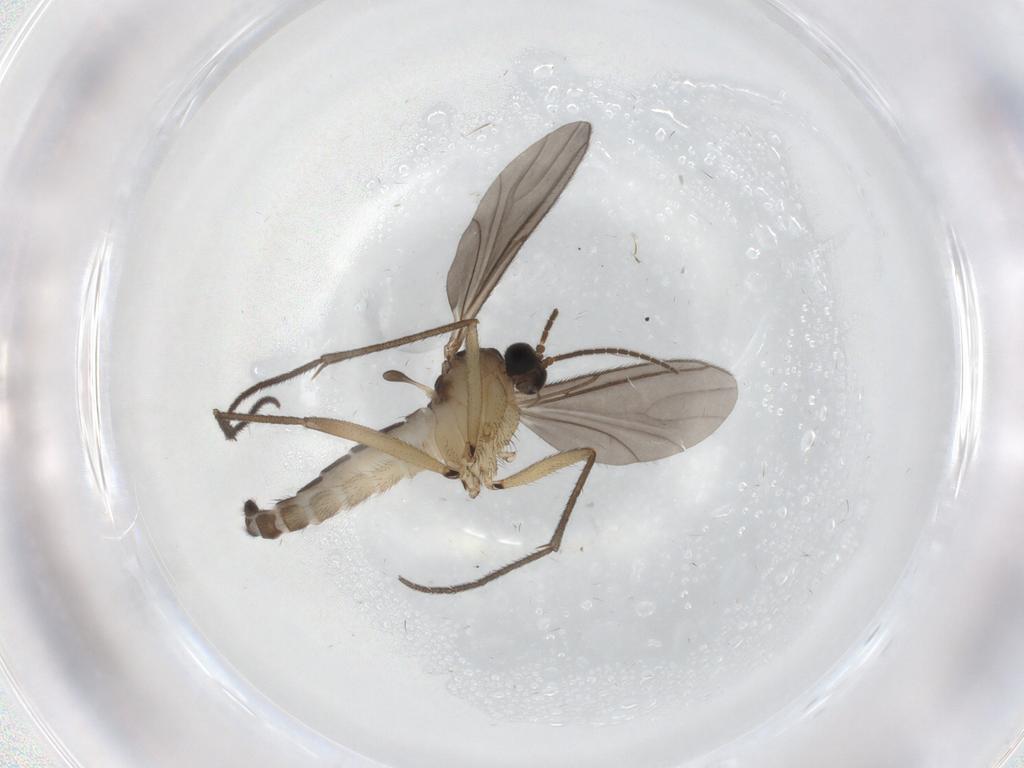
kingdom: Animalia
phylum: Arthropoda
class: Insecta
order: Diptera
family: Sciaridae
